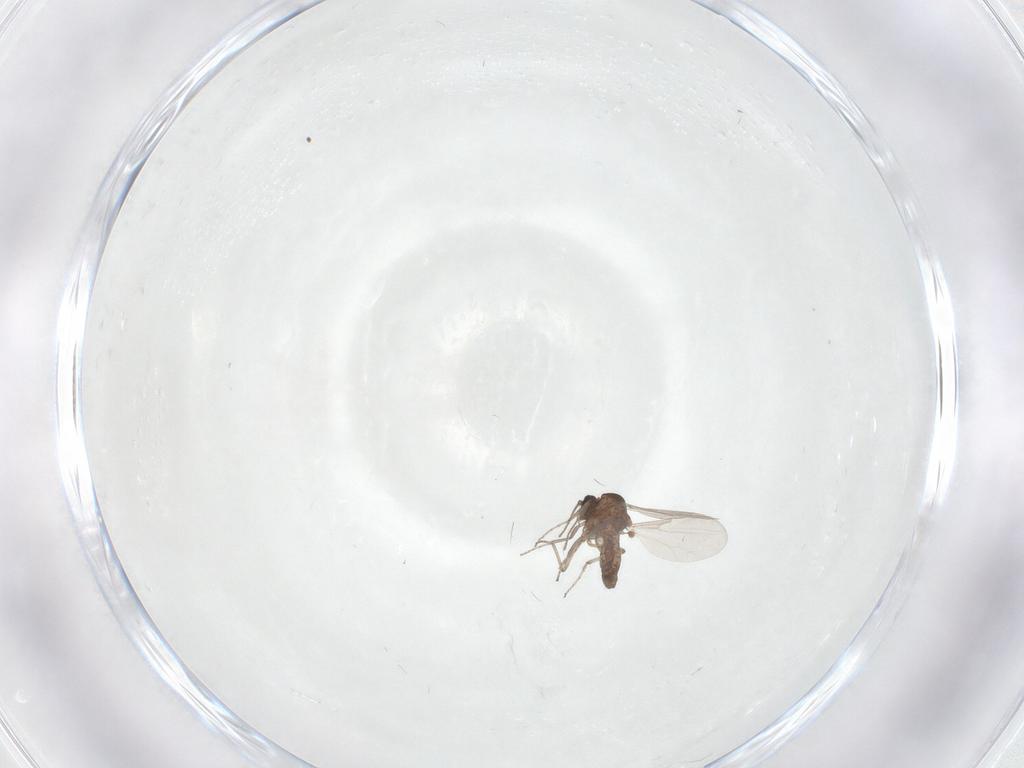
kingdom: Animalia
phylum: Arthropoda
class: Insecta
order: Diptera
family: Ceratopogonidae
